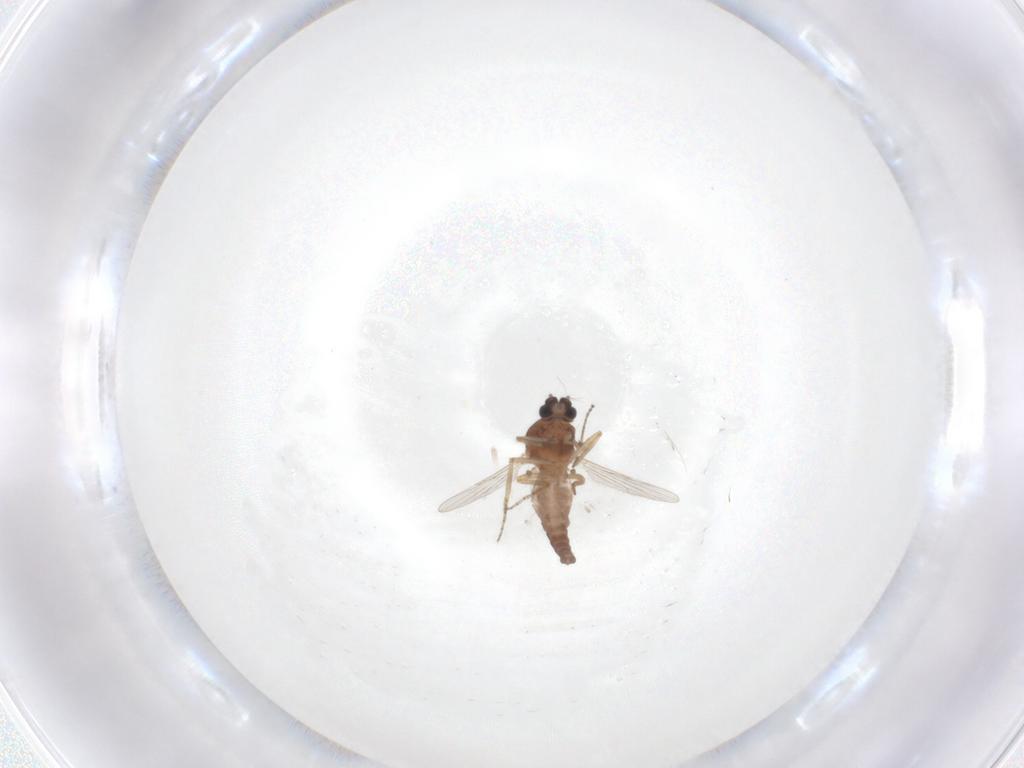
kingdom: Animalia
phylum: Arthropoda
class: Insecta
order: Diptera
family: Ceratopogonidae
